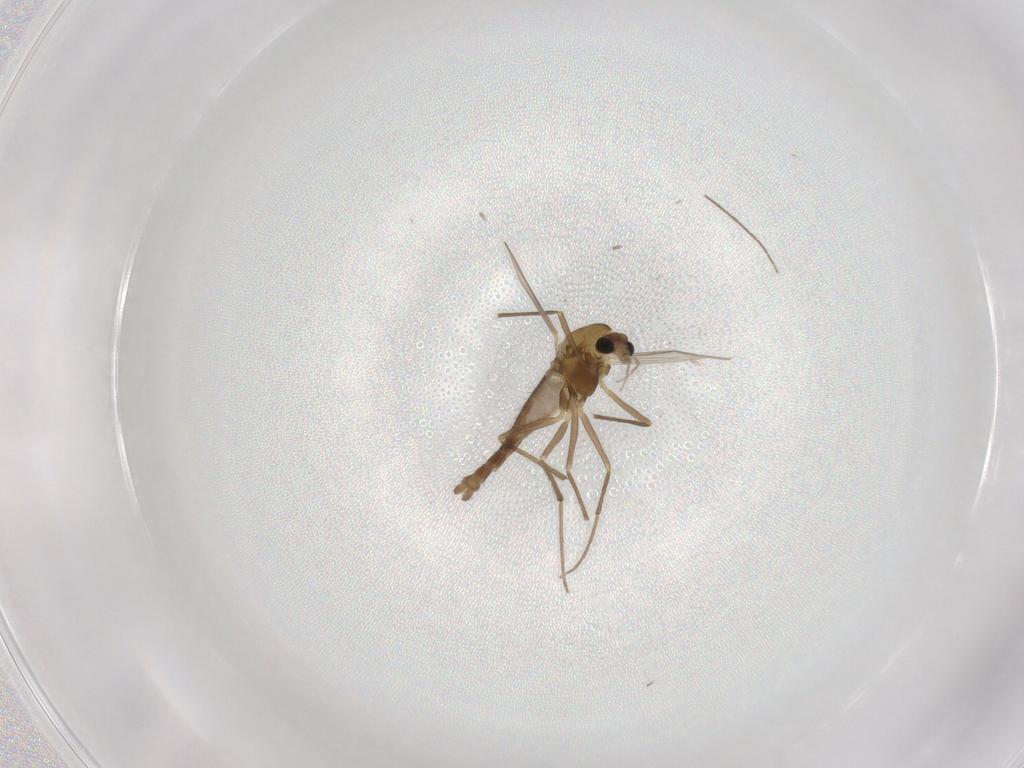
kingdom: Animalia
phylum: Arthropoda
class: Insecta
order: Diptera
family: Chironomidae
